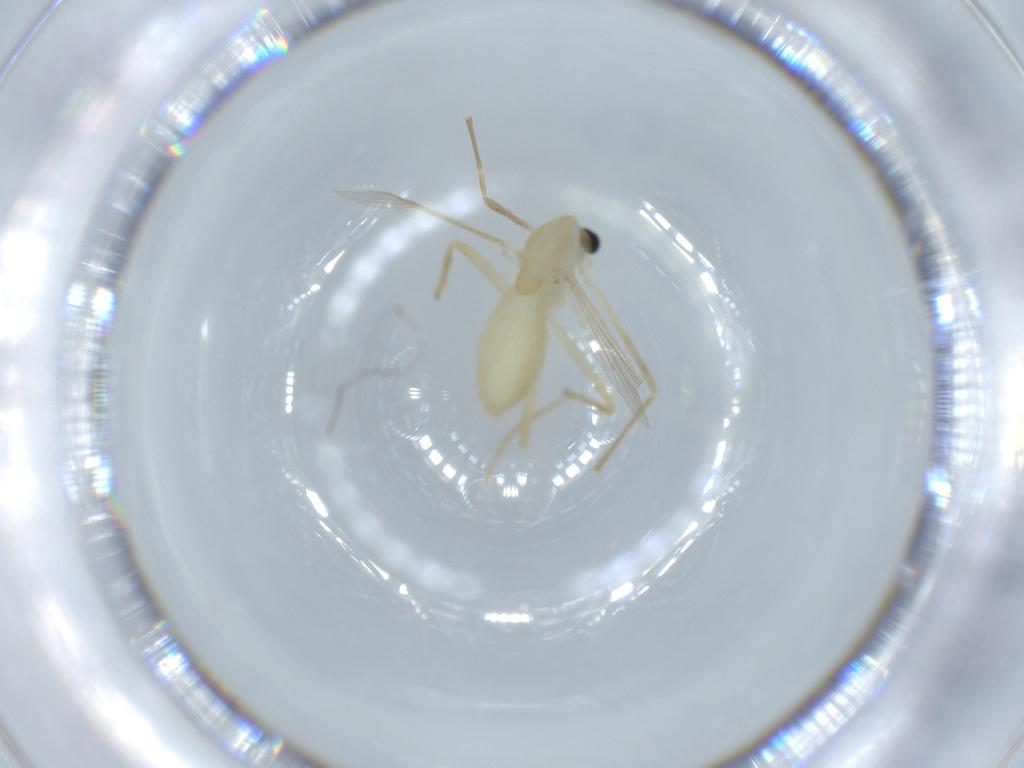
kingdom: Animalia
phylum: Arthropoda
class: Insecta
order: Diptera
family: Chironomidae
